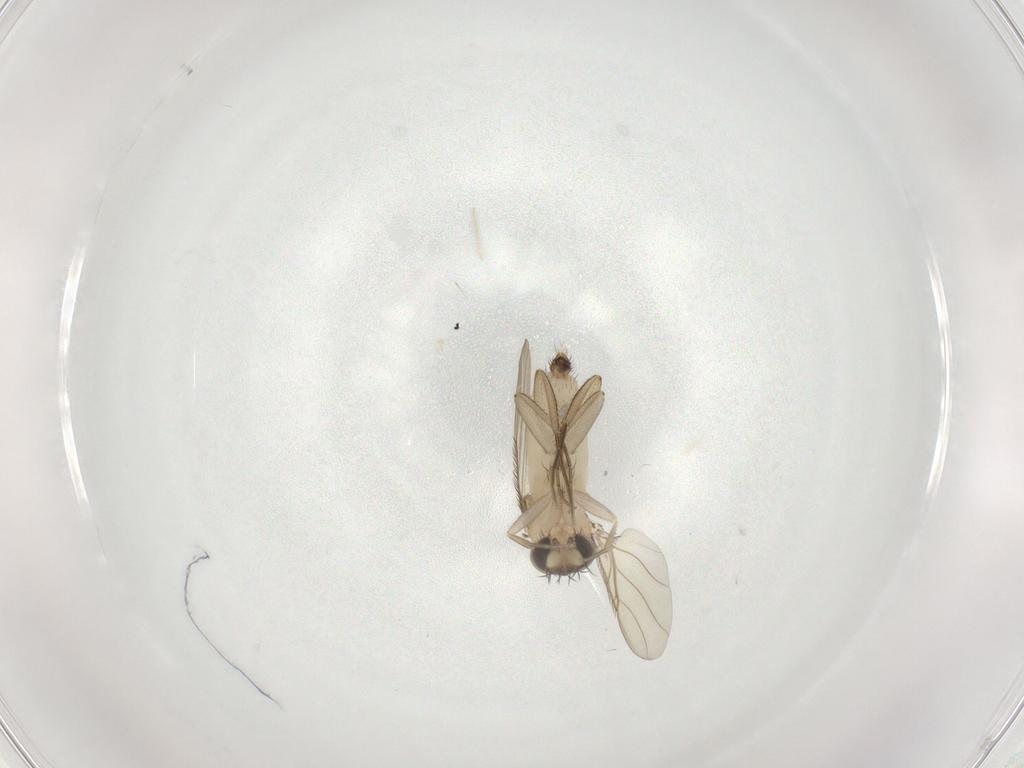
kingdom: Animalia
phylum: Arthropoda
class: Insecta
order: Diptera
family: Phoridae
